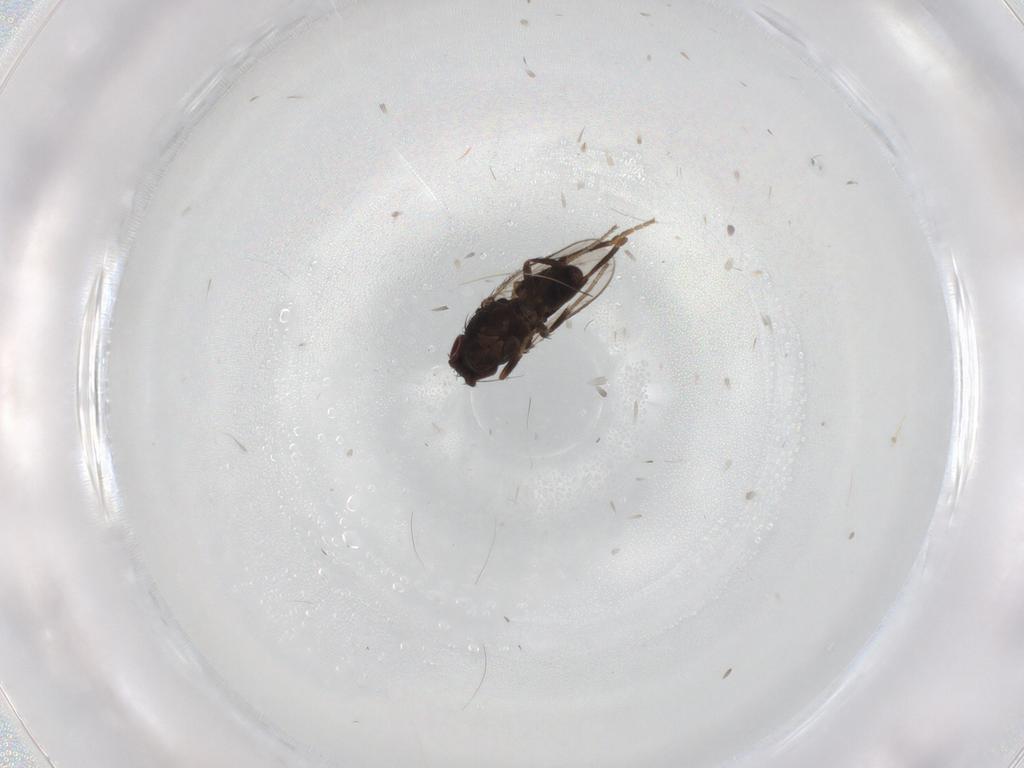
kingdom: Animalia
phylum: Arthropoda
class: Insecta
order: Diptera
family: Sphaeroceridae
